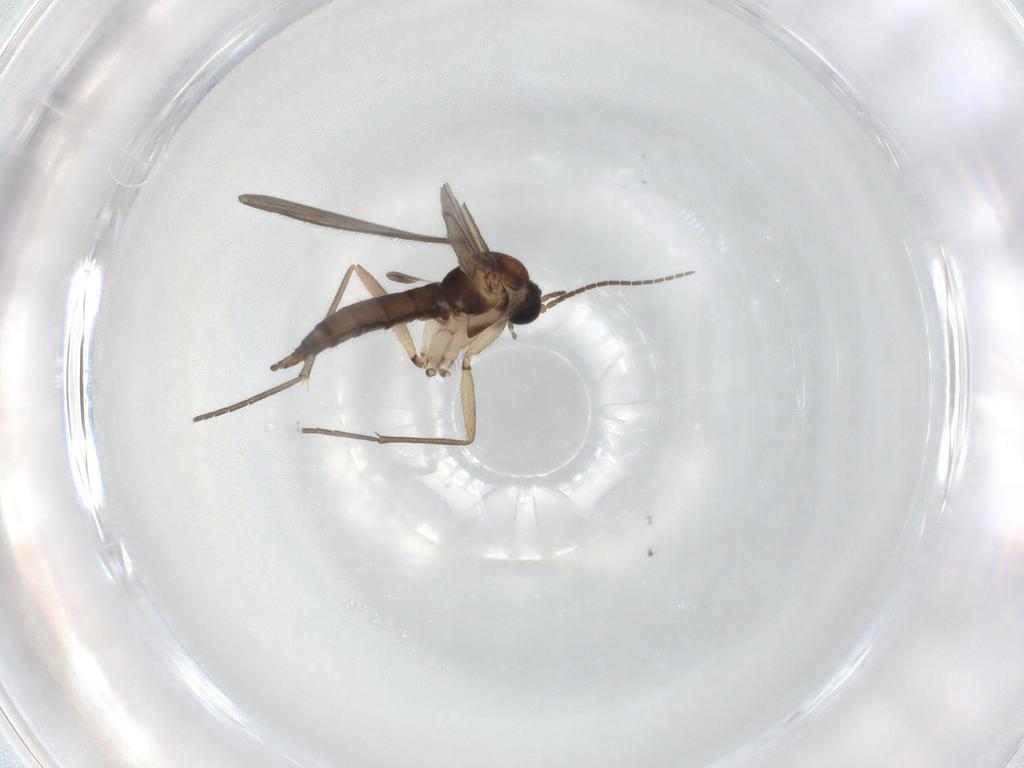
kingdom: Animalia
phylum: Arthropoda
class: Insecta
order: Diptera
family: Sciaridae
